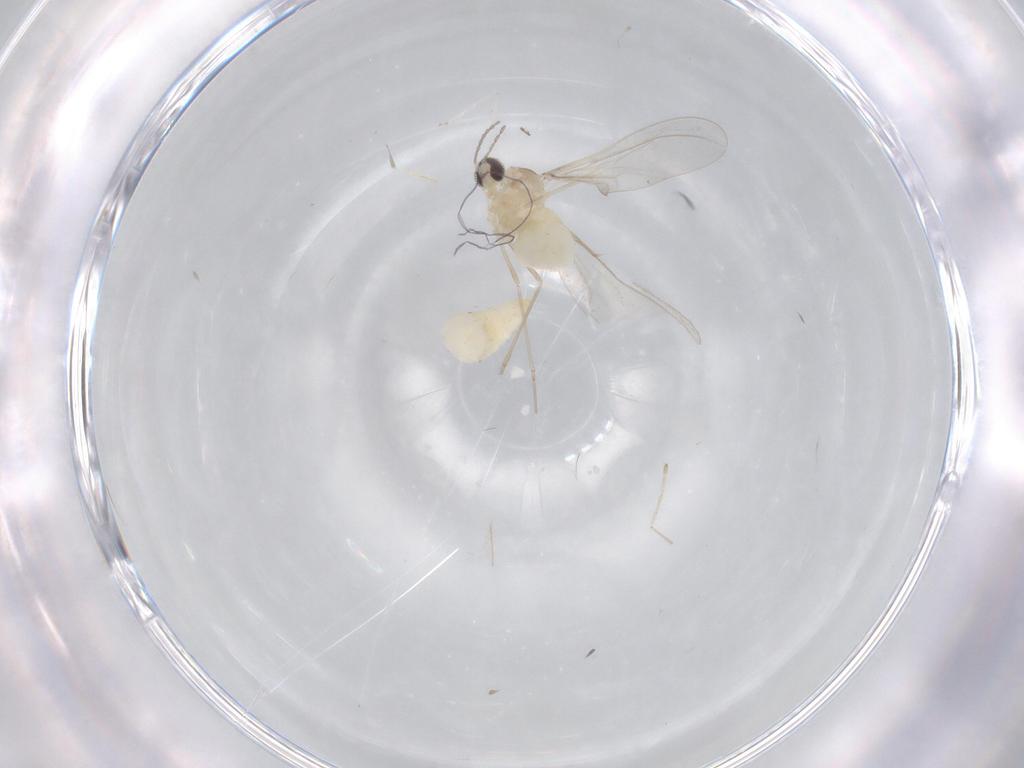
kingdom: Animalia
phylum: Arthropoda
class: Insecta
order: Diptera
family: Cecidomyiidae
